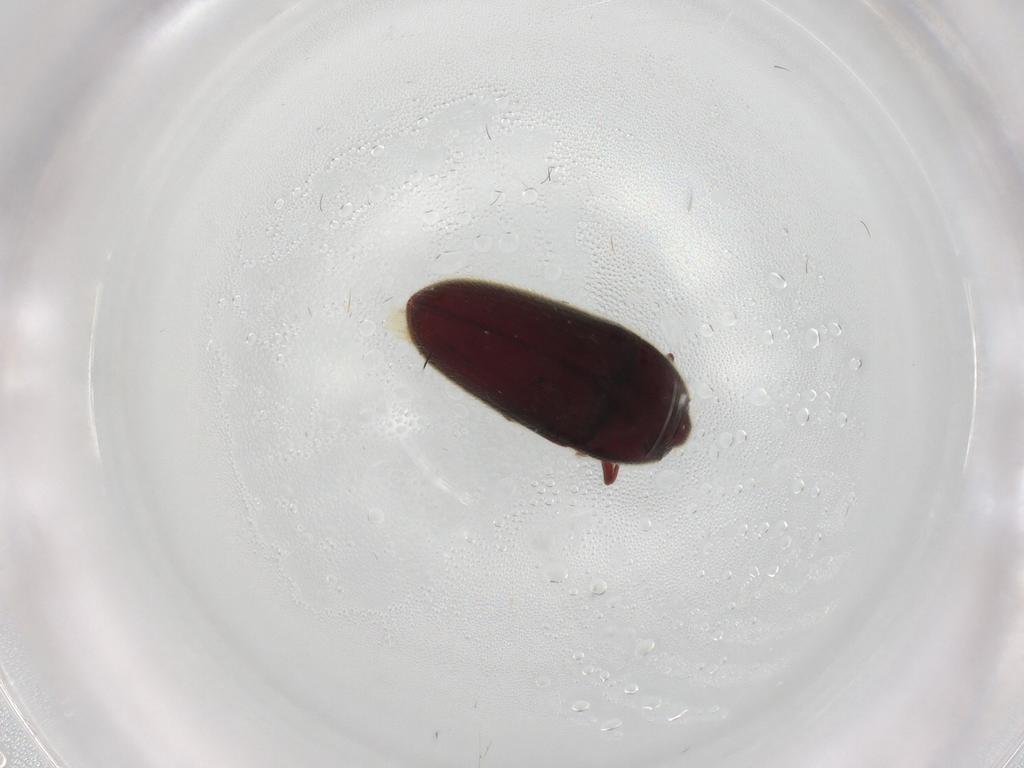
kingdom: Animalia
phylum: Arthropoda
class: Insecta
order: Coleoptera
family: Throscidae
